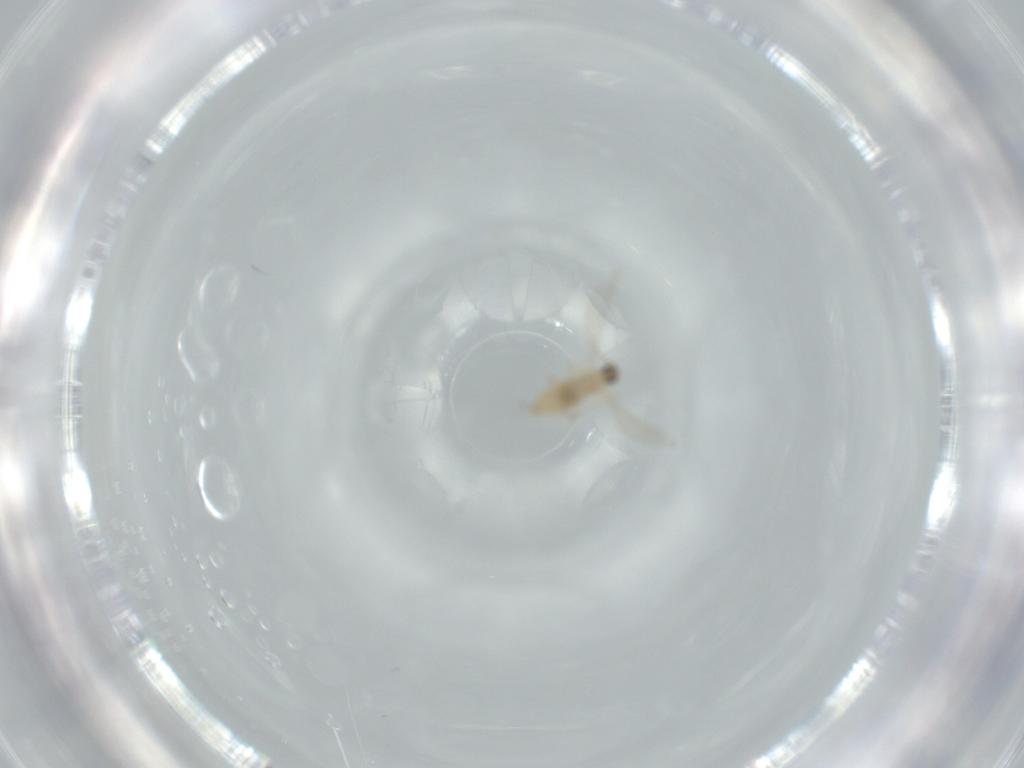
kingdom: Animalia
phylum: Arthropoda
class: Insecta
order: Diptera
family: Cecidomyiidae
